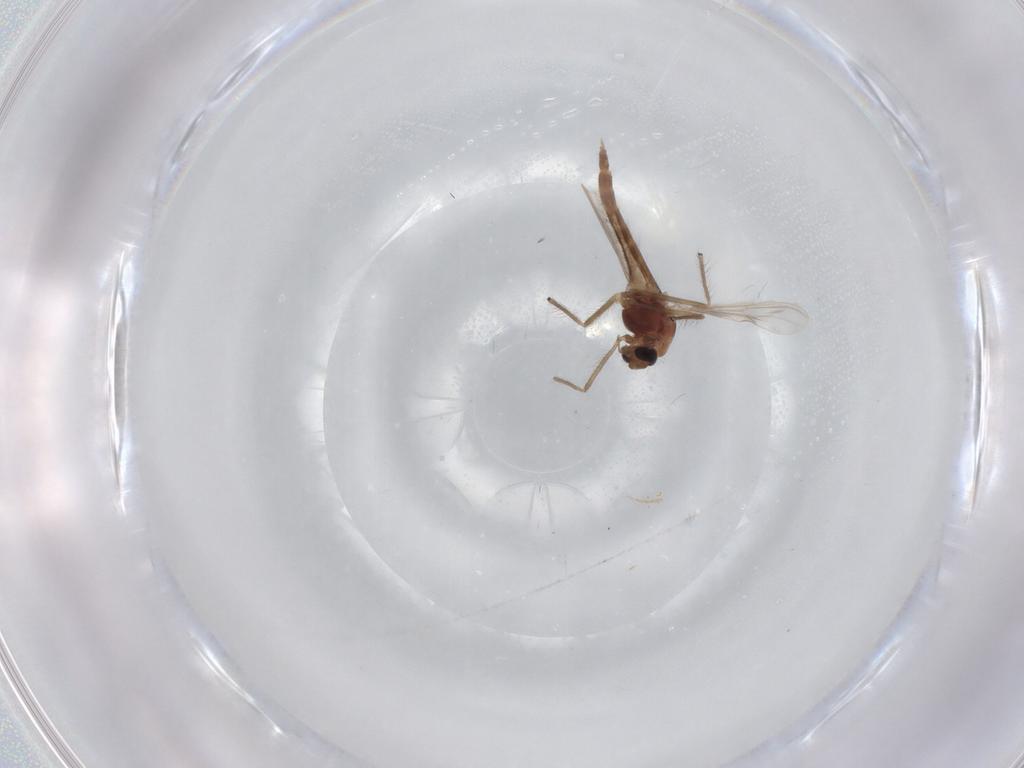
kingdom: Animalia
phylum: Arthropoda
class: Insecta
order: Diptera
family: Chironomidae
